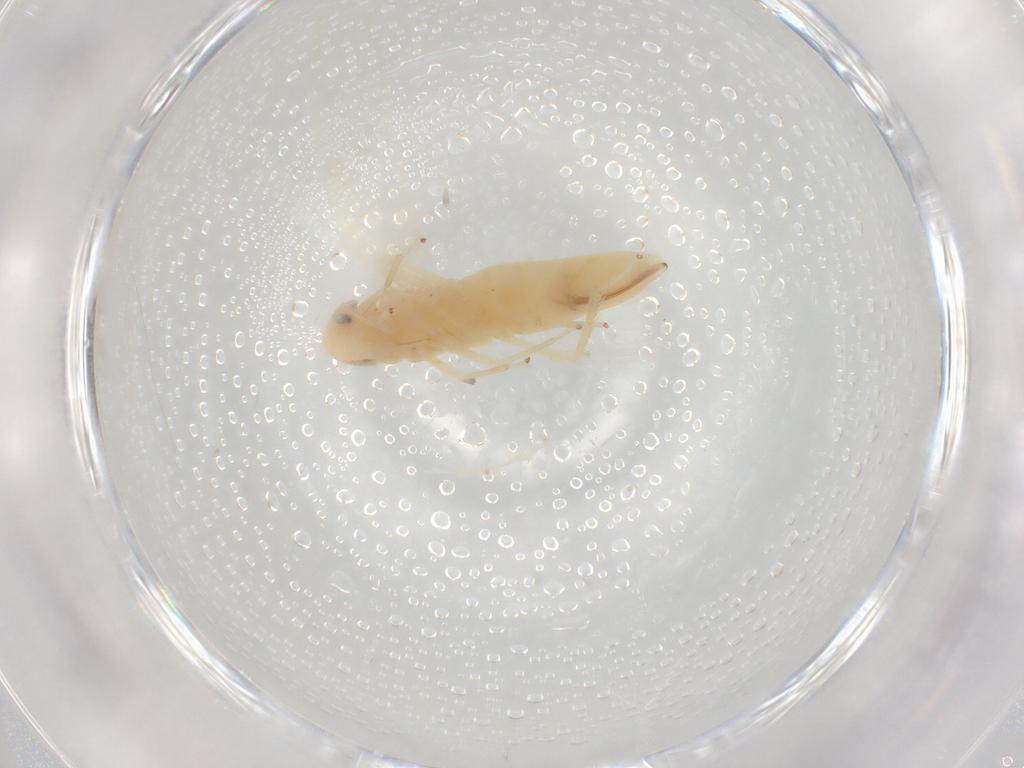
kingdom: Animalia
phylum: Arthropoda
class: Insecta
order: Hemiptera
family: Cicadellidae
